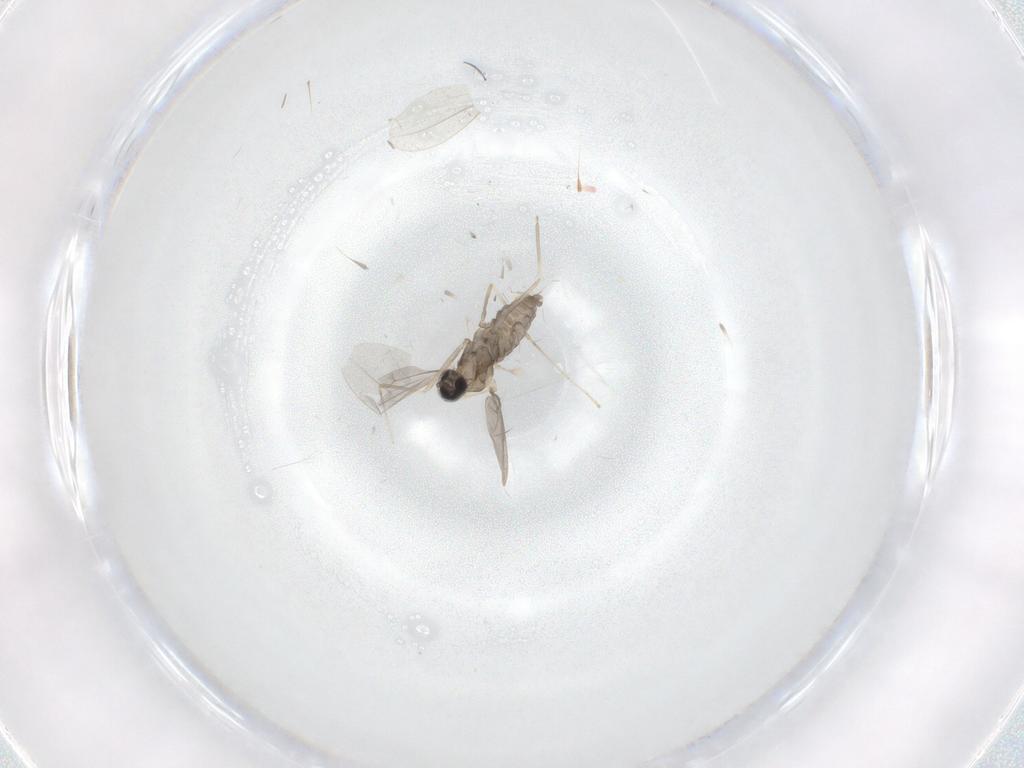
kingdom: Animalia
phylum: Arthropoda
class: Insecta
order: Diptera
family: Cecidomyiidae
